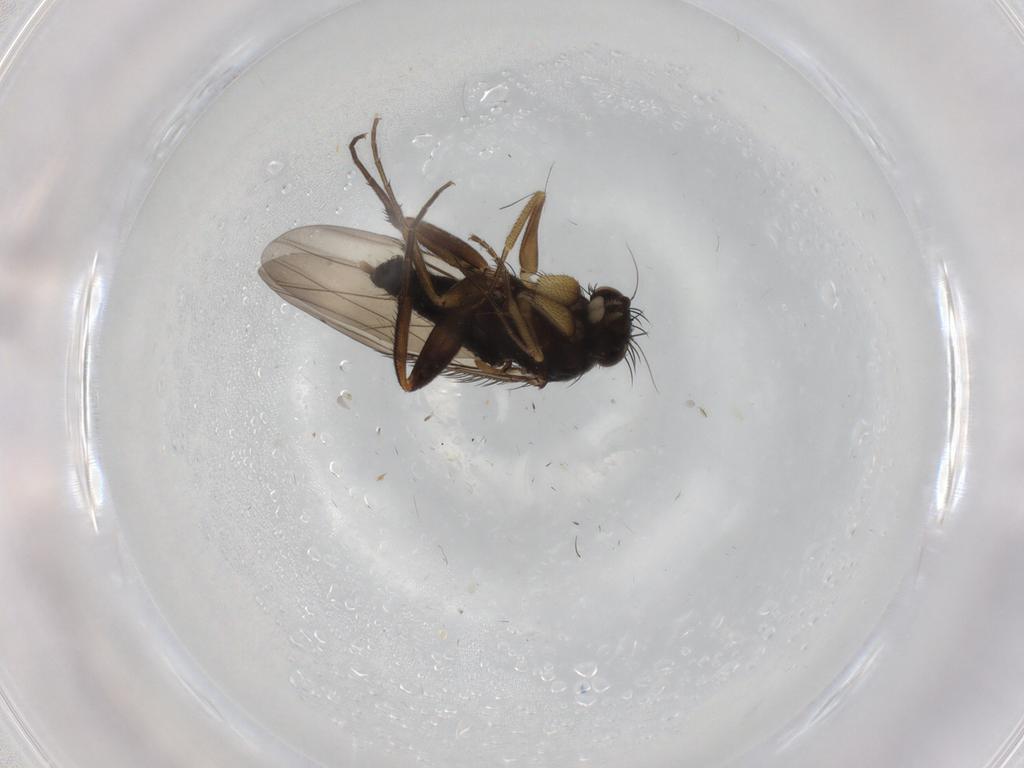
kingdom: Animalia
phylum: Arthropoda
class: Insecta
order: Diptera
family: Phoridae
